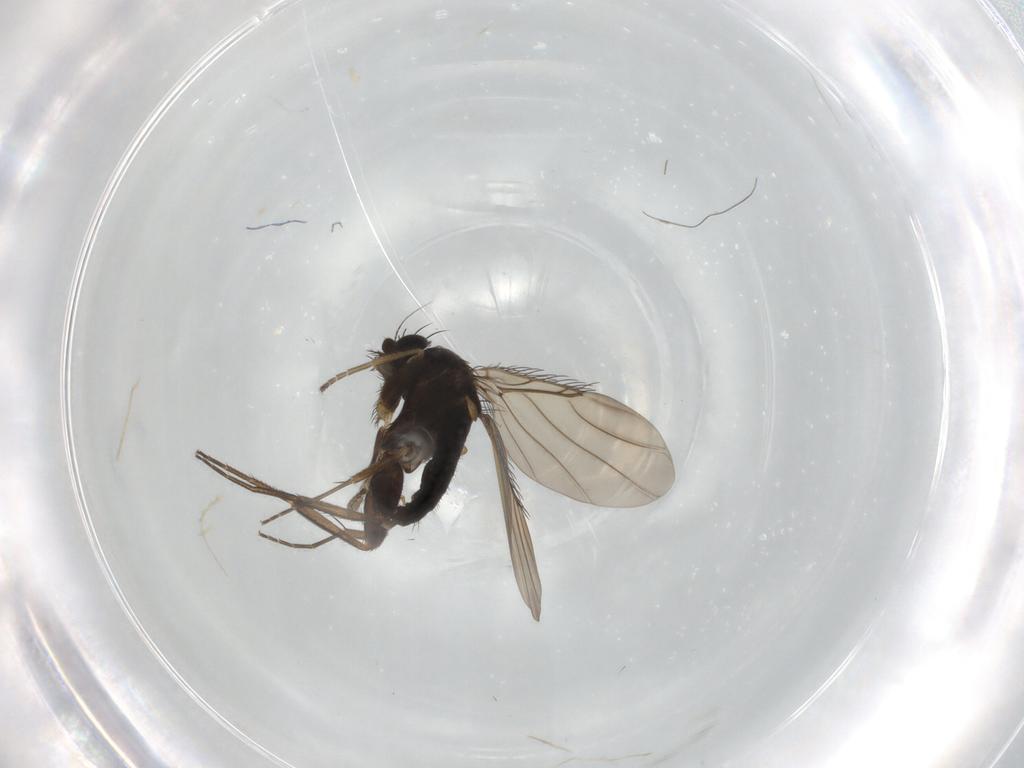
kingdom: Animalia
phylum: Arthropoda
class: Insecta
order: Diptera
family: Phoridae
